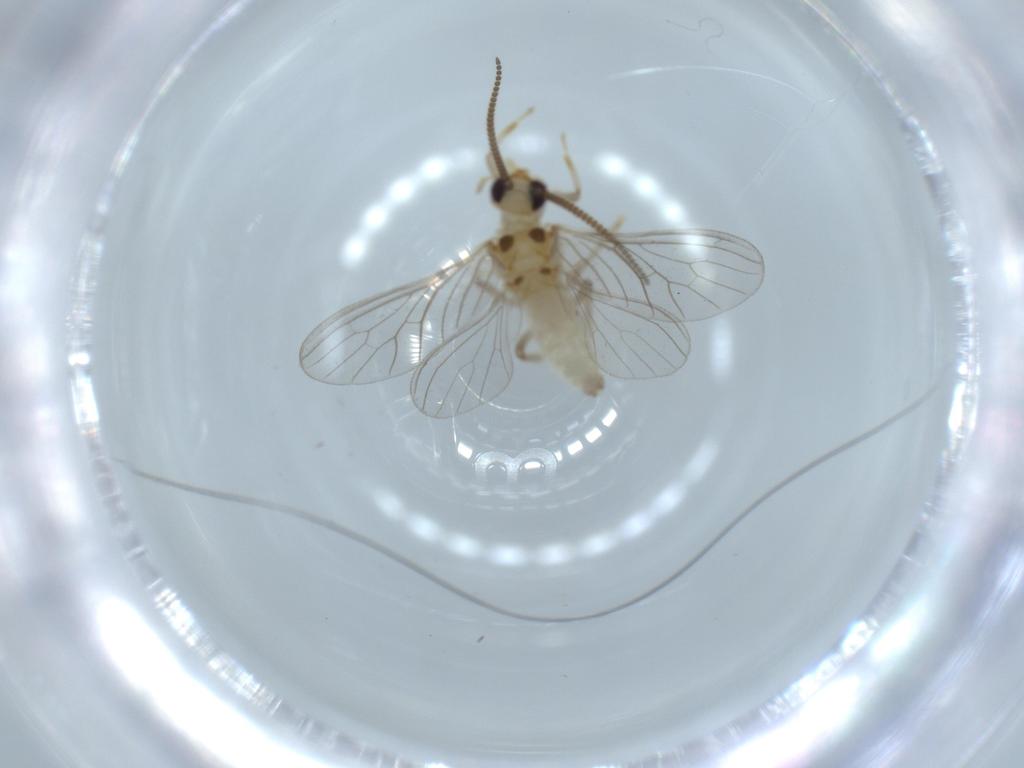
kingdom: Animalia
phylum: Arthropoda
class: Insecta
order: Neuroptera
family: Coniopterygidae
